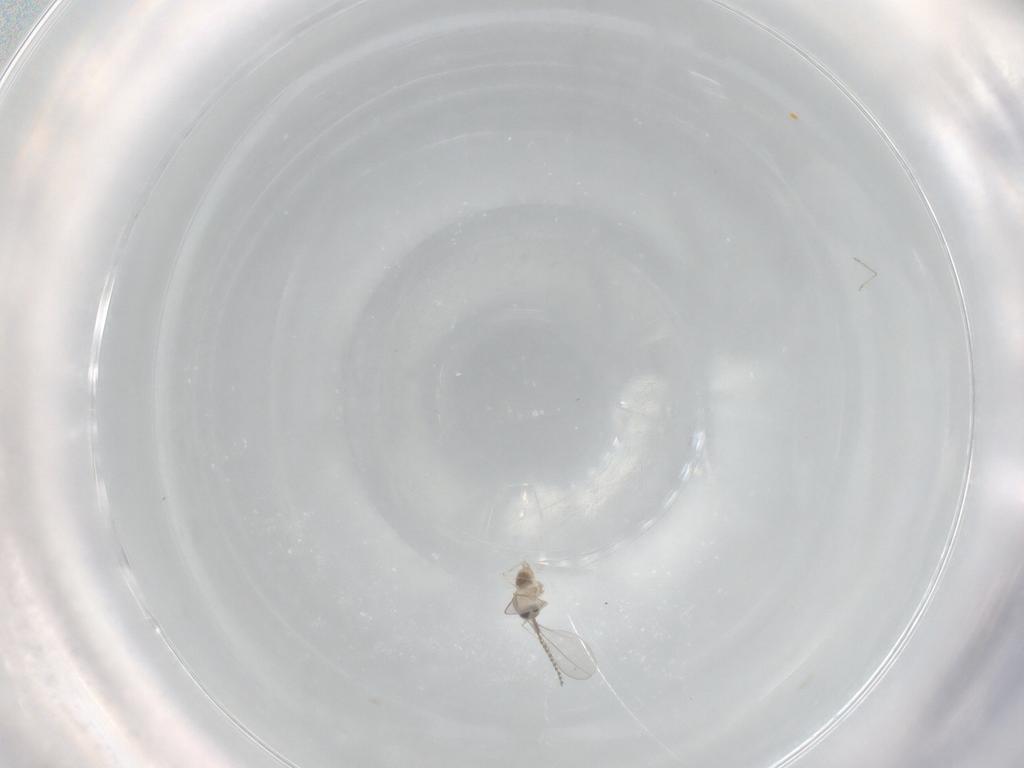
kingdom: Animalia
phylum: Arthropoda
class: Insecta
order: Diptera
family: Cecidomyiidae
